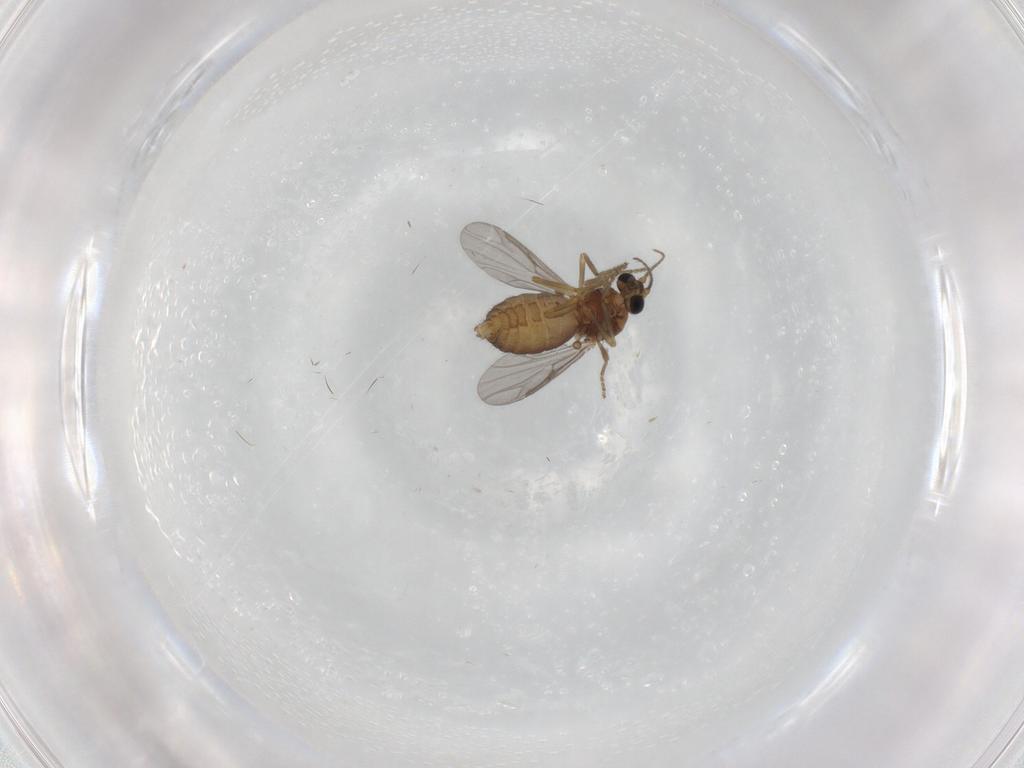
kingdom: Animalia
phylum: Arthropoda
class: Insecta
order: Diptera
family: Ceratopogonidae
